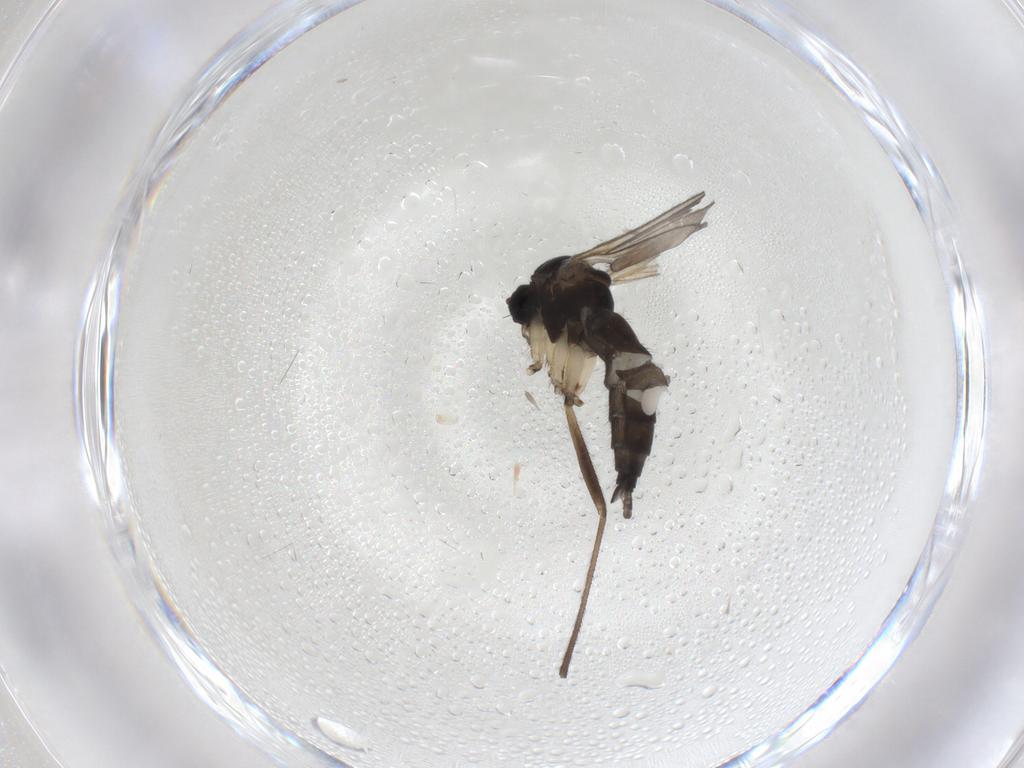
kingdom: Animalia
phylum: Arthropoda
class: Insecta
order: Diptera
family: Sciaridae
